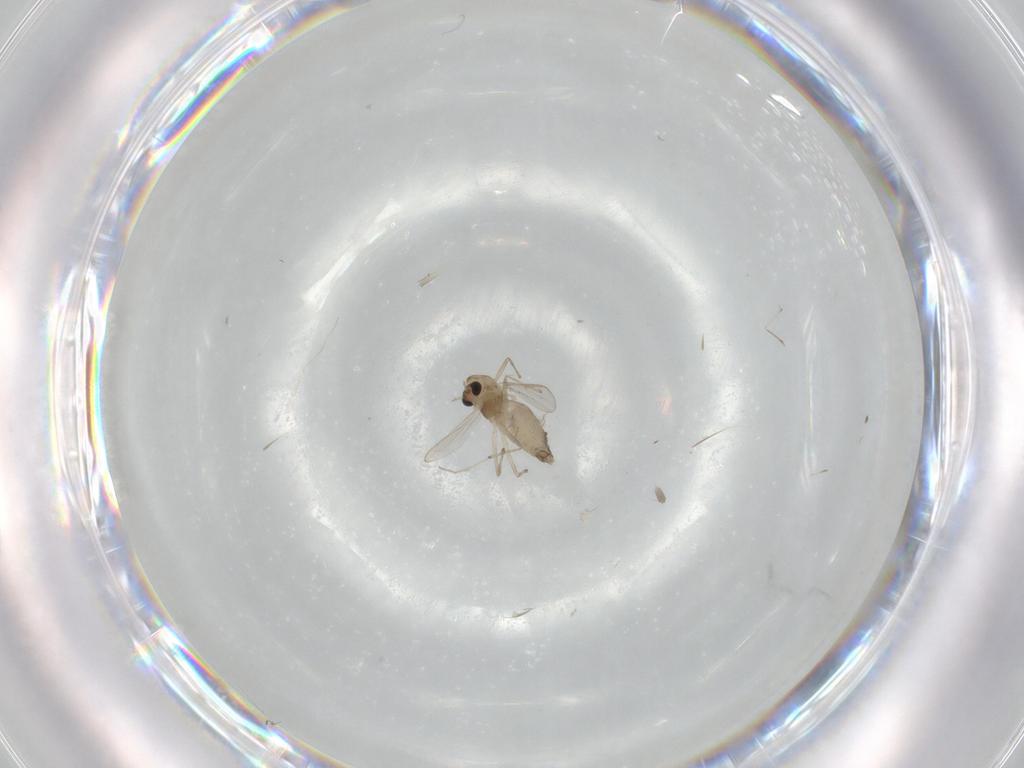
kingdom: Animalia
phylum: Arthropoda
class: Insecta
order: Diptera
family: Chironomidae
